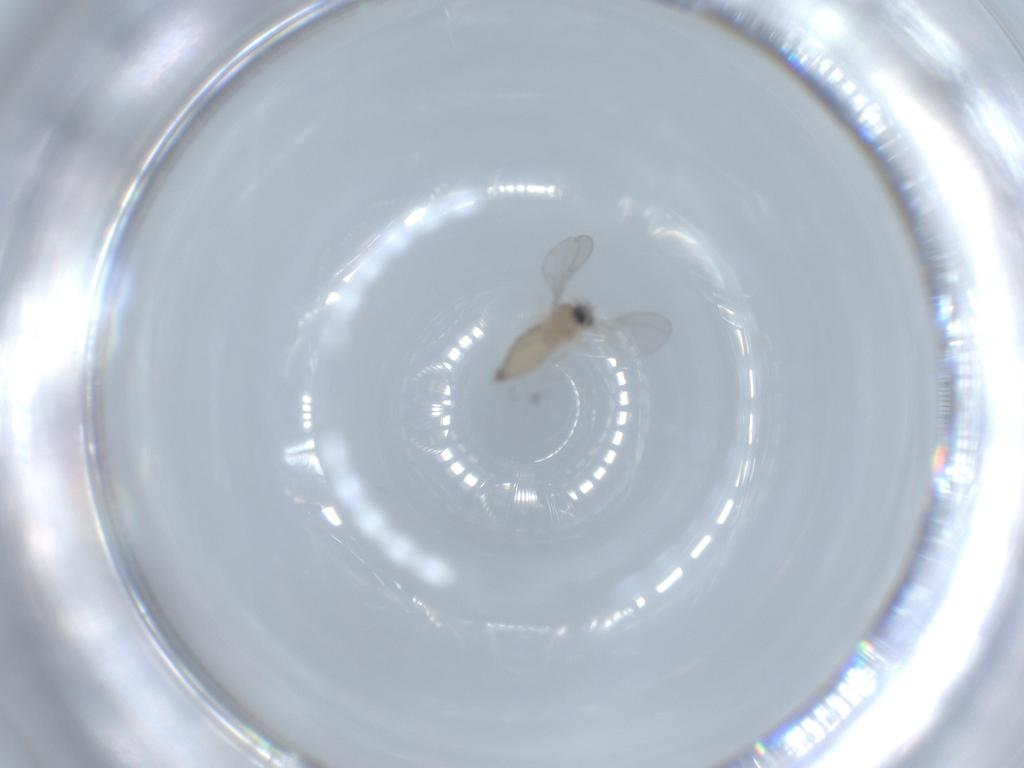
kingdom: Animalia
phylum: Arthropoda
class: Insecta
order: Diptera
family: Cecidomyiidae
